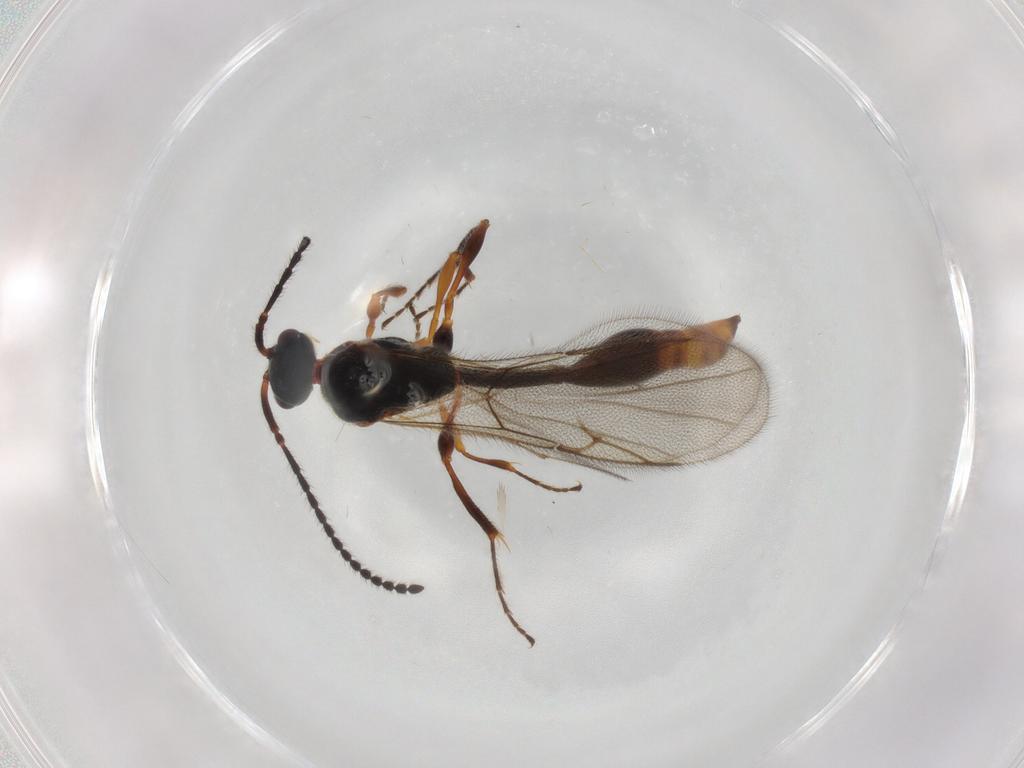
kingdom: Animalia
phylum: Arthropoda
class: Insecta
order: Hymenoptera
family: Diapriidae
